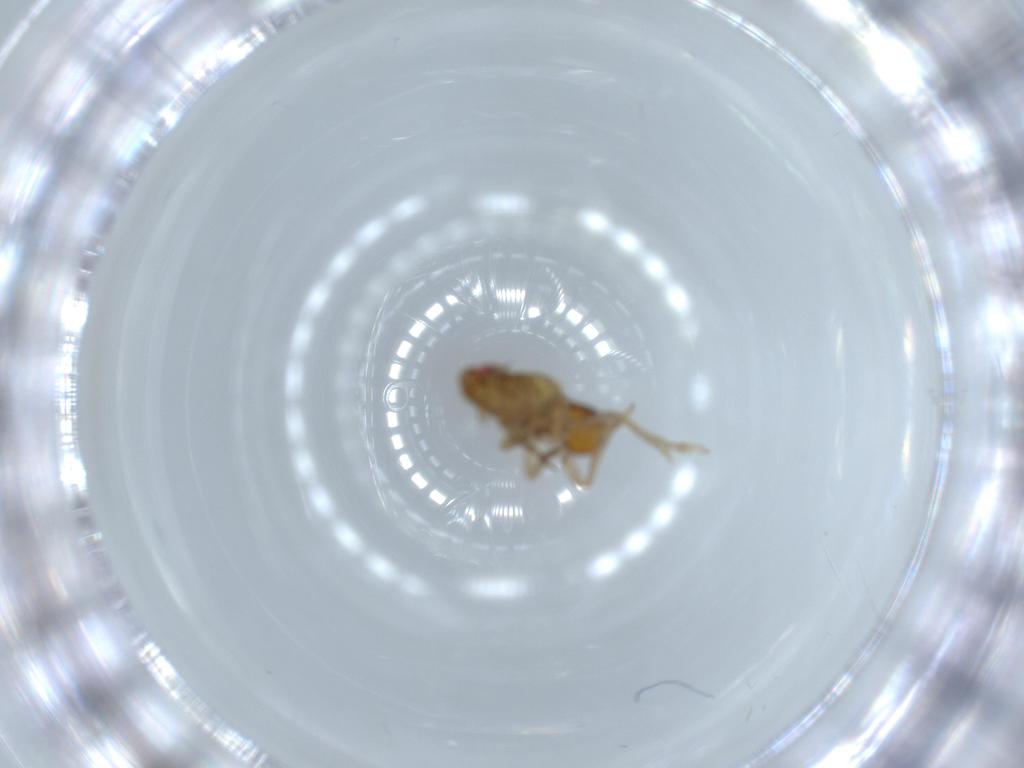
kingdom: Animalia
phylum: Arthropoda
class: Insecta
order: Hemiptera
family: Delphacidae
